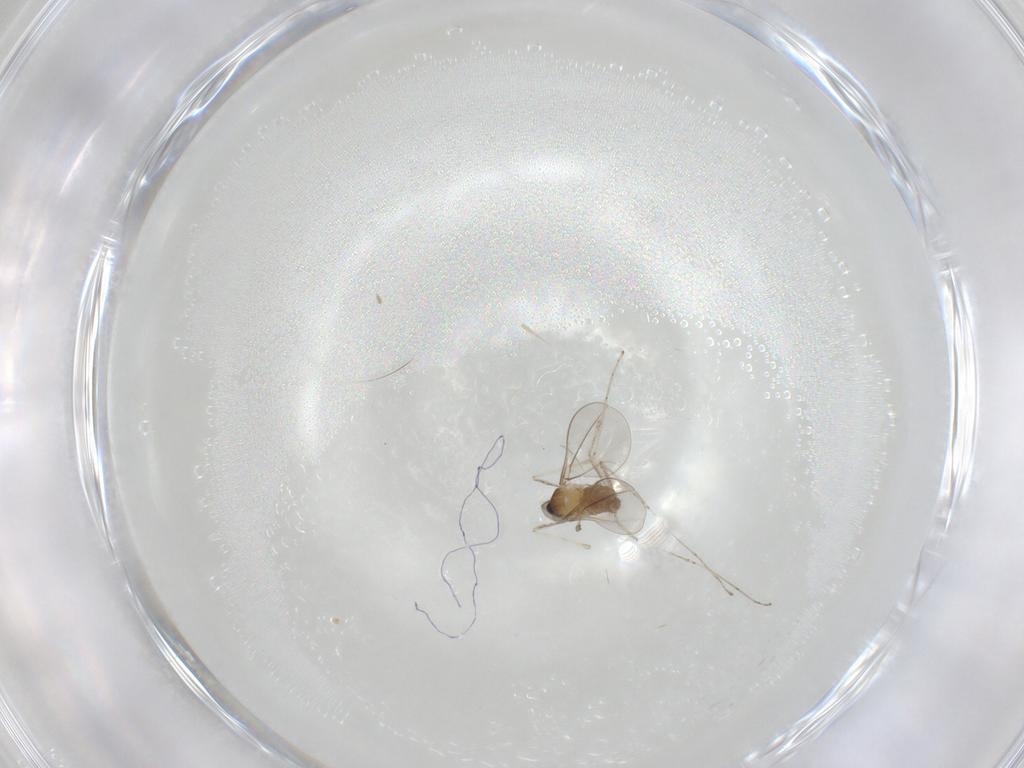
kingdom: Animalia
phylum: Arthropoda
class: Insecta
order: Diptera
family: Cecidomyiidae
